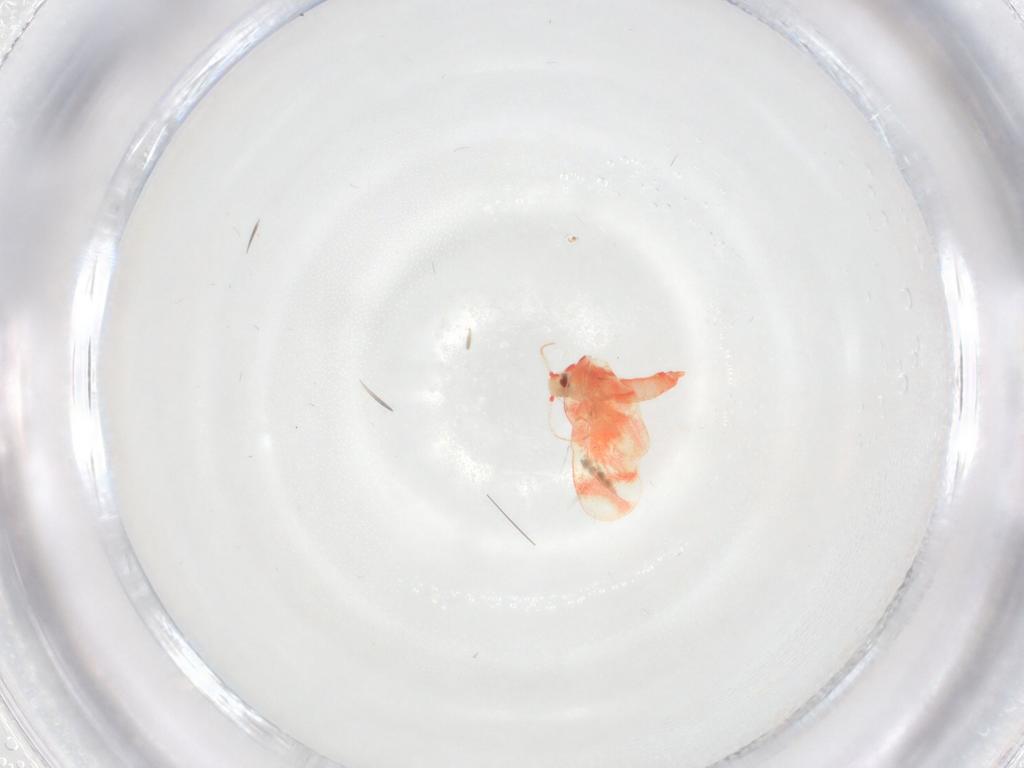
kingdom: Animalia
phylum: Arthropoda
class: Insecta
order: Hemiptera
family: Aleyrodidae
